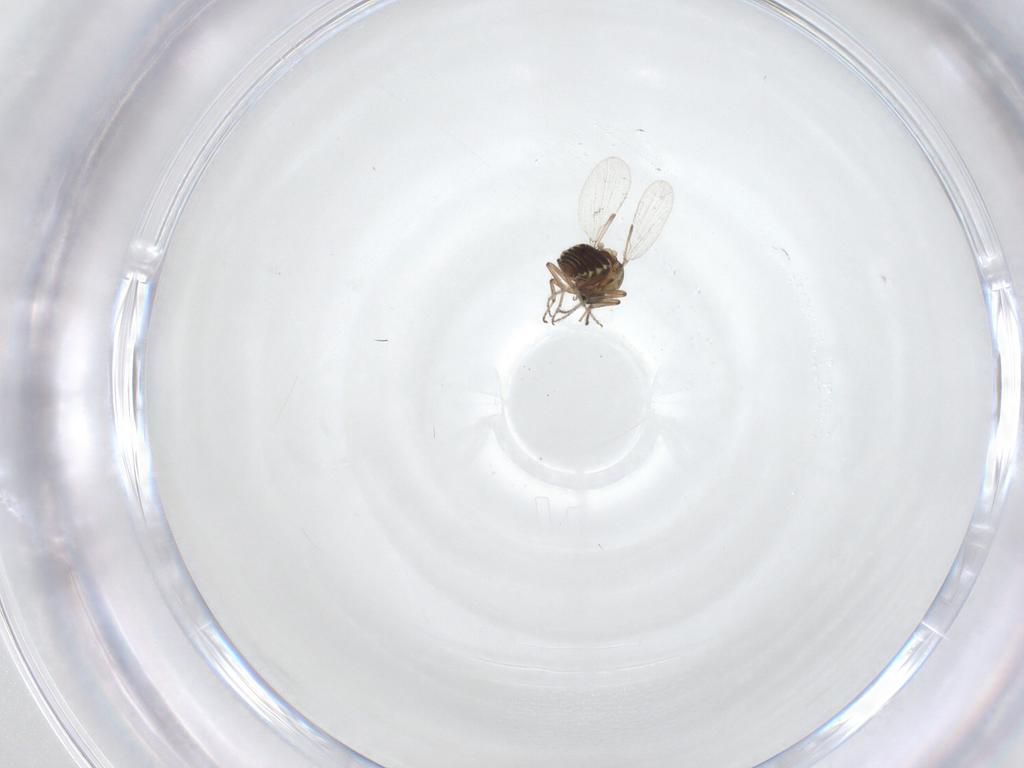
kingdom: Animalia
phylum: Arthropoda
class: Insecta
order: Diptera
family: Ceratopogonidae
